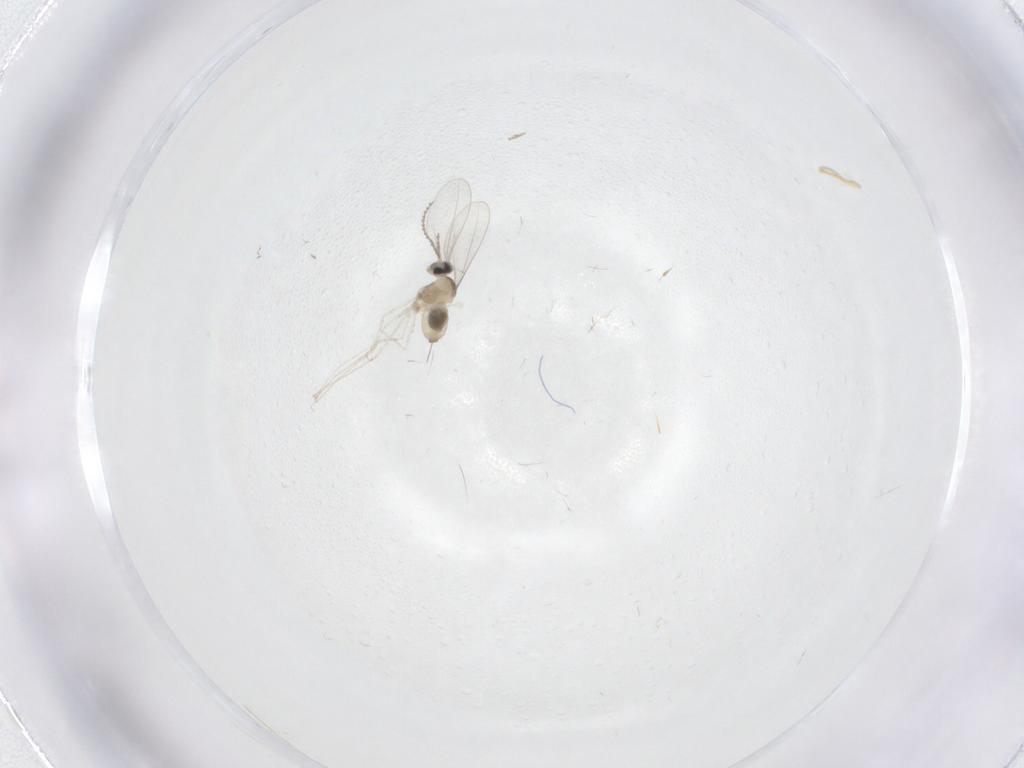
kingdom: Animalia
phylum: Arthropoda
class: Insecta
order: Diptera
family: Cecidomyiidae
